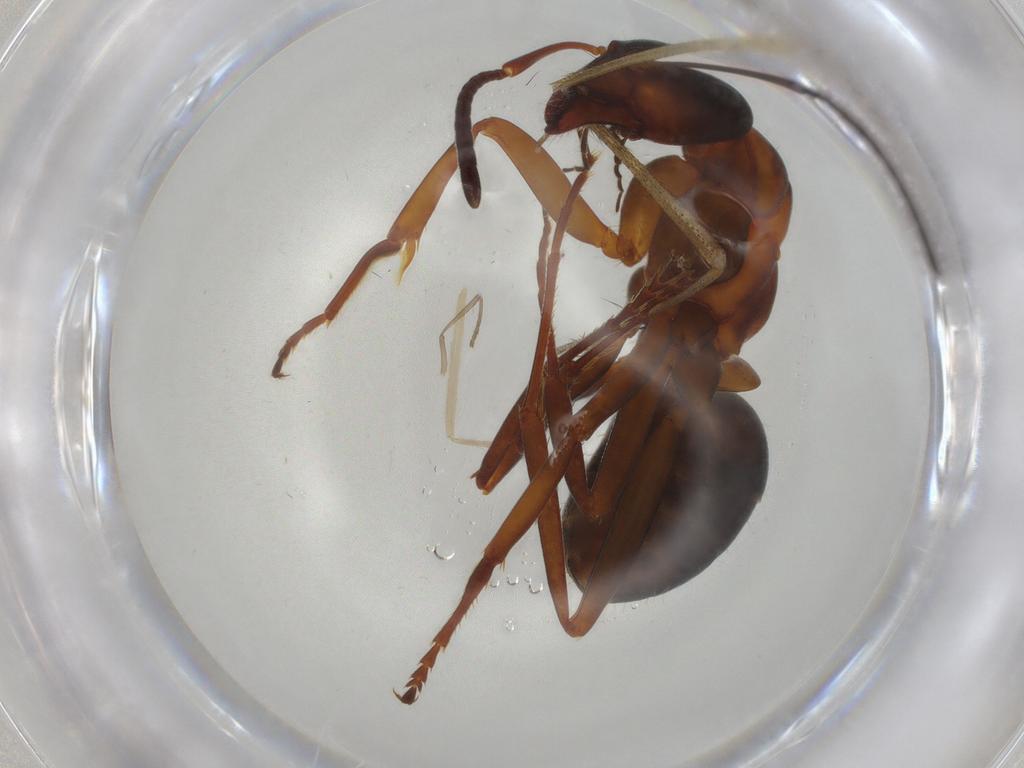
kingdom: Animalia
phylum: Arthropoda
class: Insecta
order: Hymenoptera
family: Formicidae
